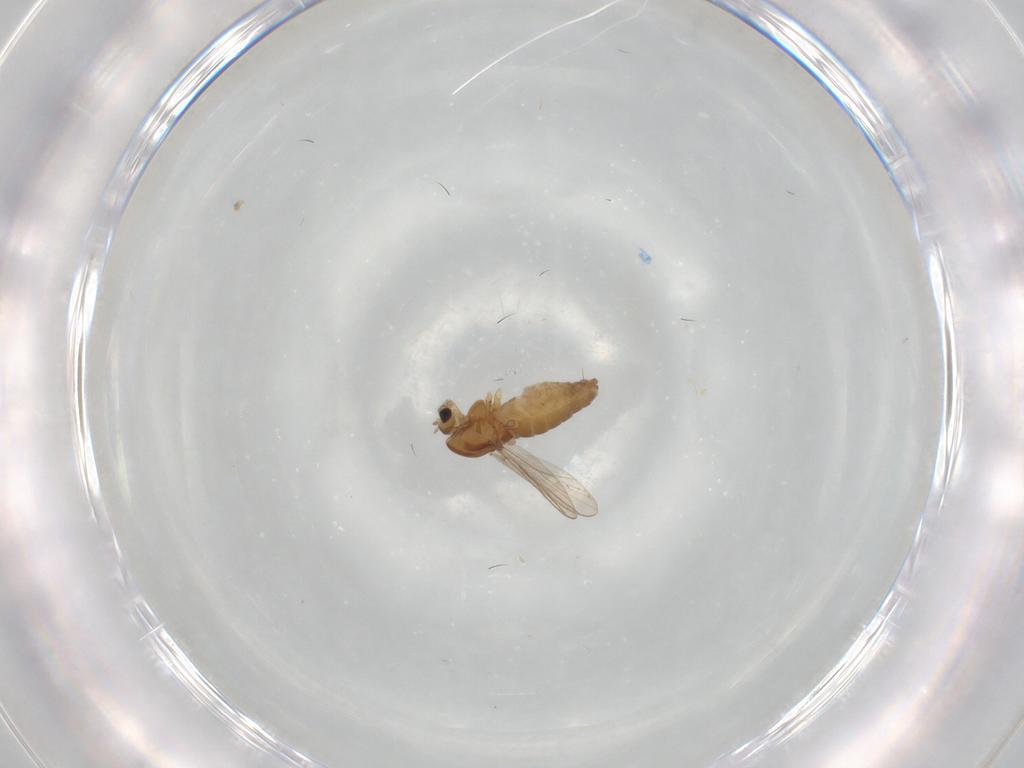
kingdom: Animalia
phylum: Arthropoda
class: Insecta
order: Diptera
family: Chironomidae
